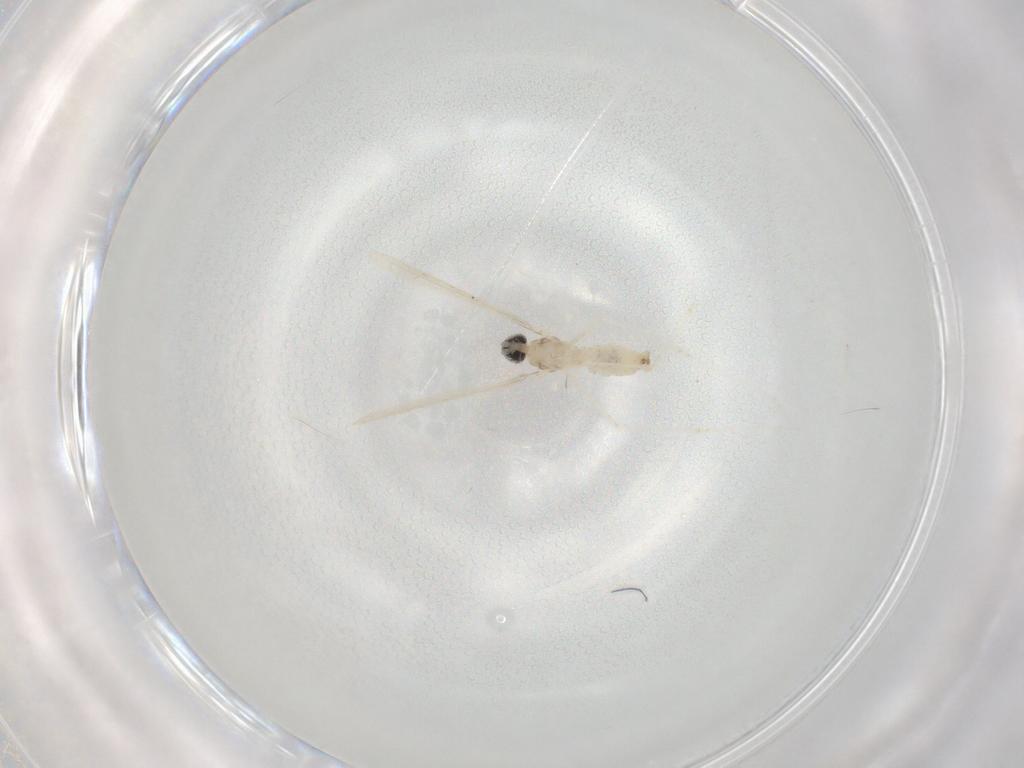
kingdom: Animalia
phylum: Arthropoda
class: Insecta
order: Diptera
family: Cecidomyiidae
